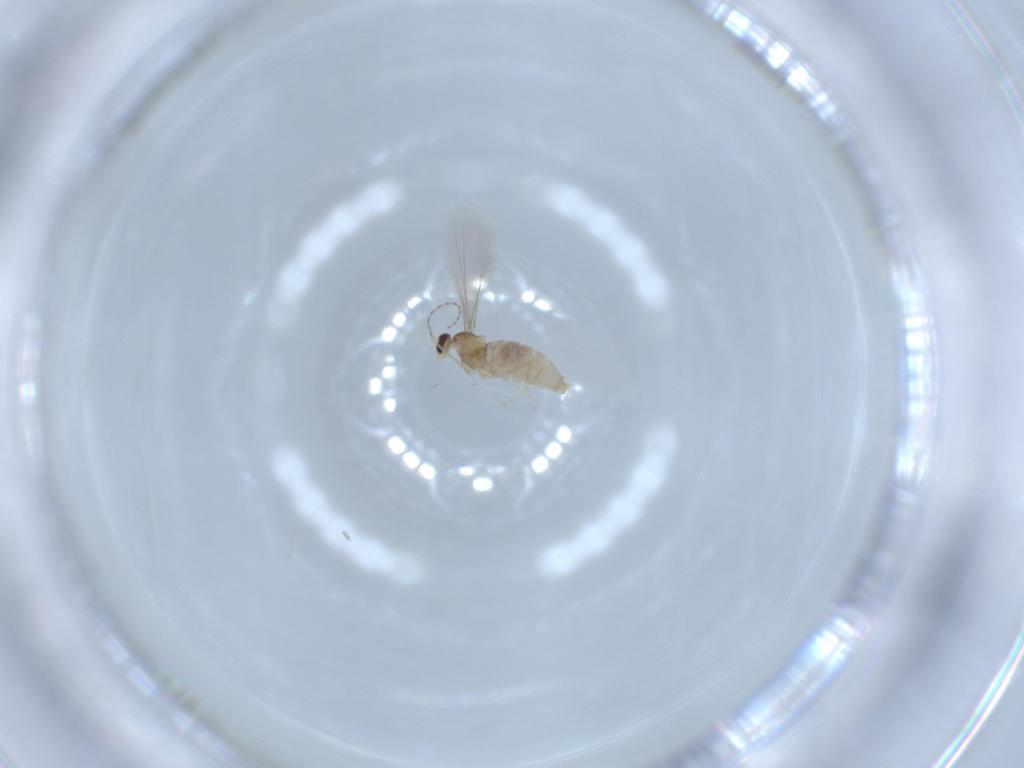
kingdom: Animalia
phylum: Arthropoda
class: Insecta
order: Diptera
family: Cecidomyiidae
